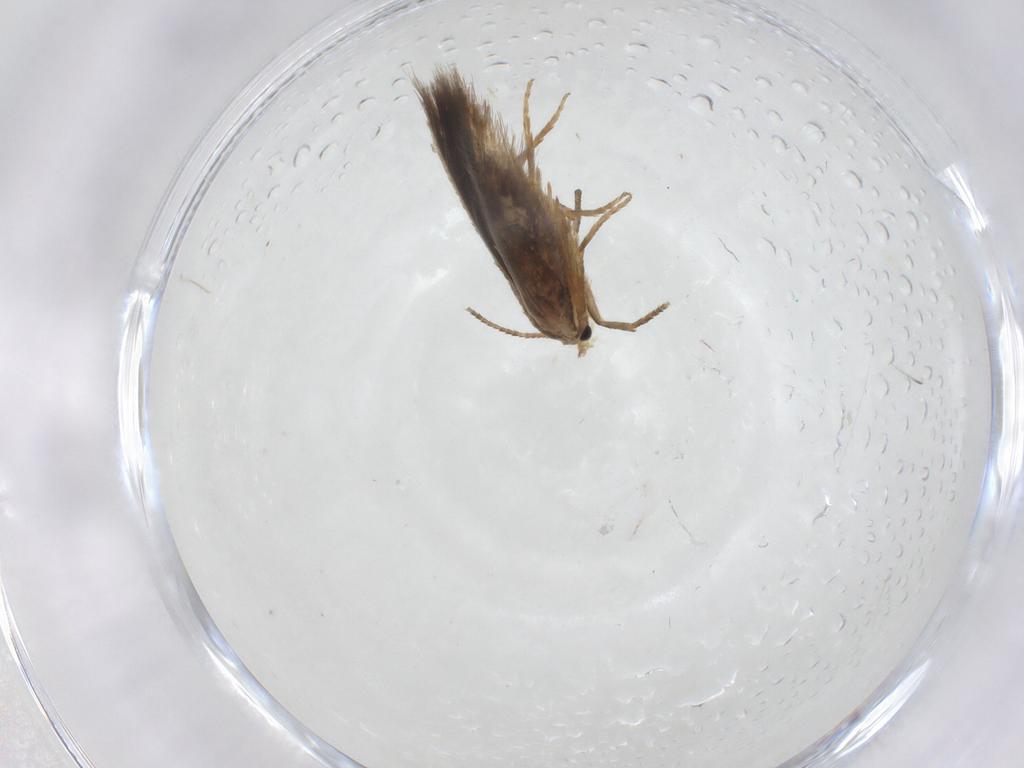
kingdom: Animalia
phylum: Arthropoda
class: Insecta
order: Lepidoptera
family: Nepticulidae
